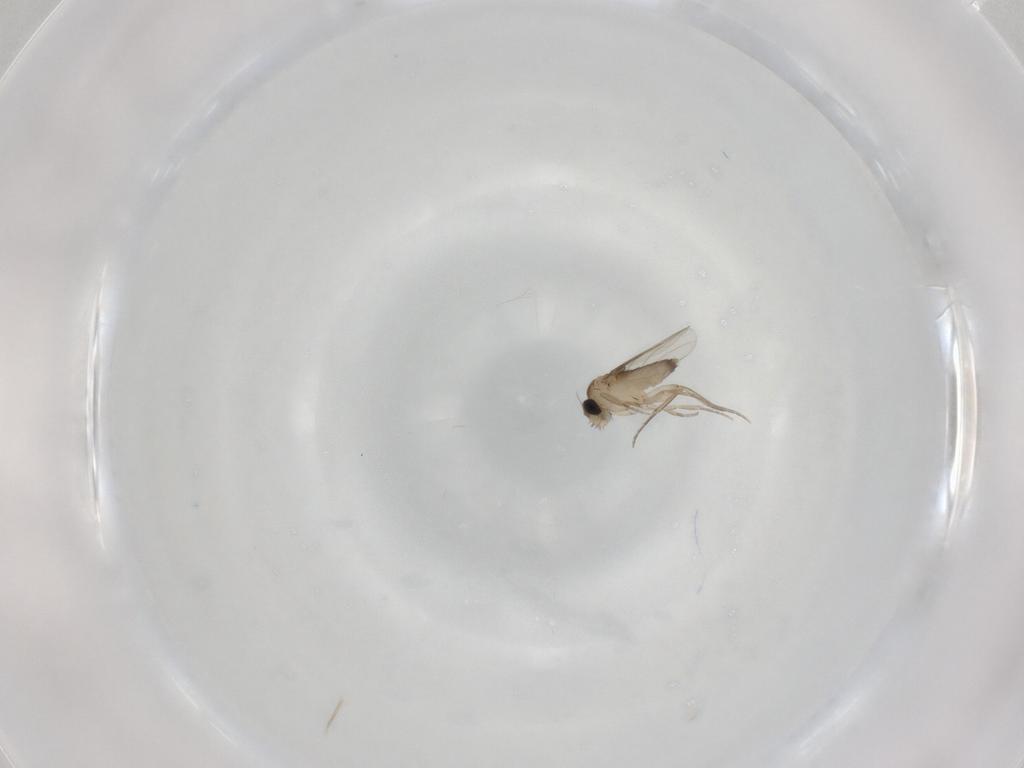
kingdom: Animalia
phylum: Arthropoda
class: Insecta
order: Diptera
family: Phoridae
